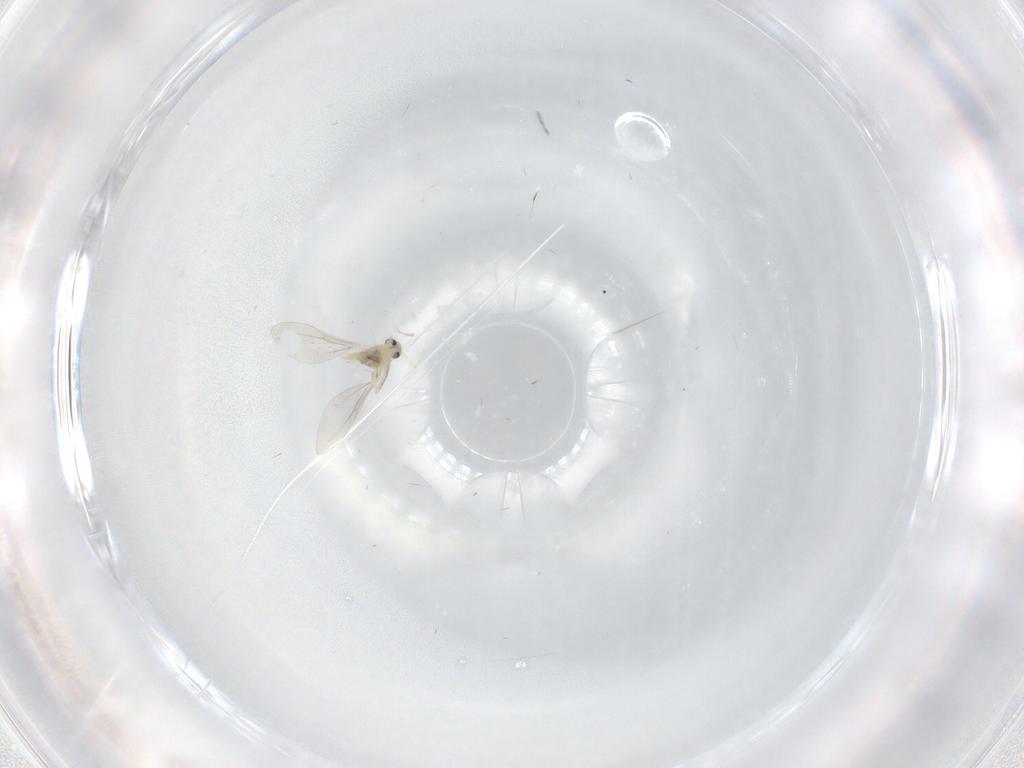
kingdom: Animalia
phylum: Arthropoda
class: Insecta
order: Diptera
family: Cecidomyiidae
